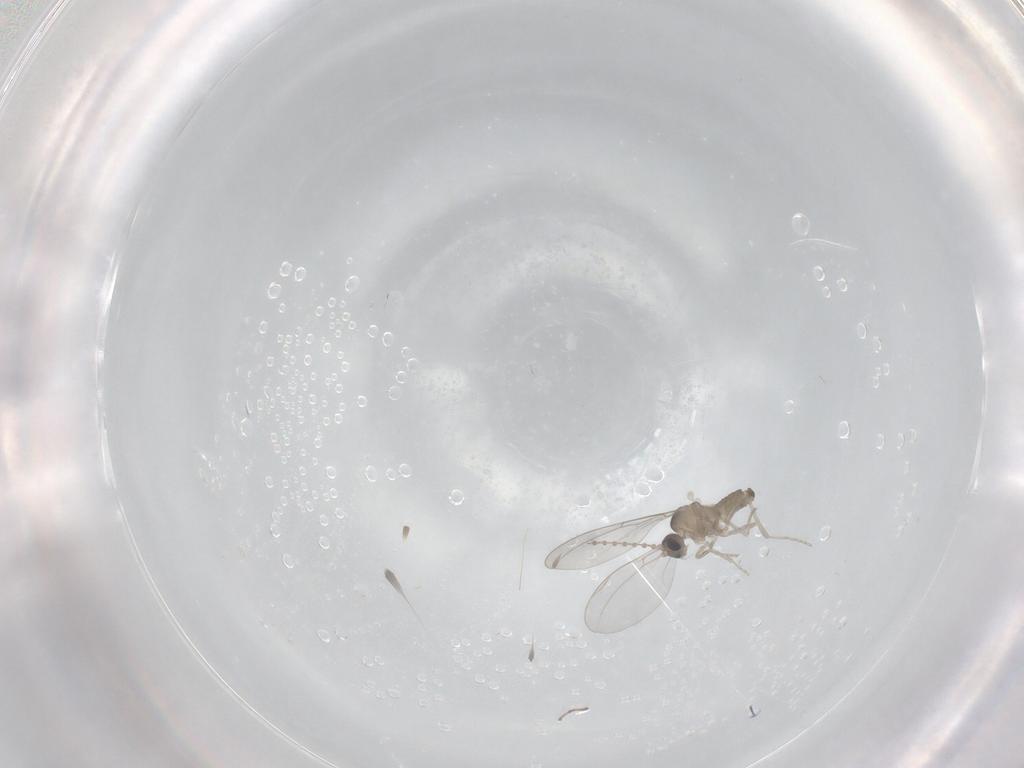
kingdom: Animalia
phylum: Arthropoda
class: Insecta
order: Diptera
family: Cecidomyiidae
